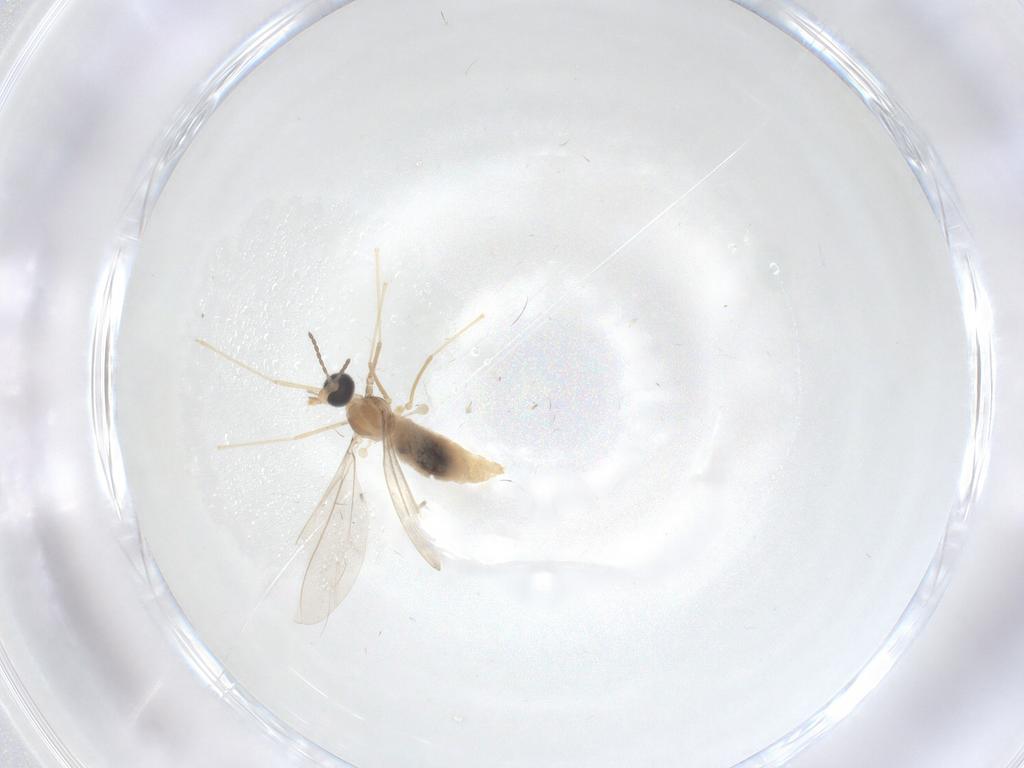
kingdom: Animalia
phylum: Arthropoda
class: Insecta
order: Diptera
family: Cecidomyiidae
